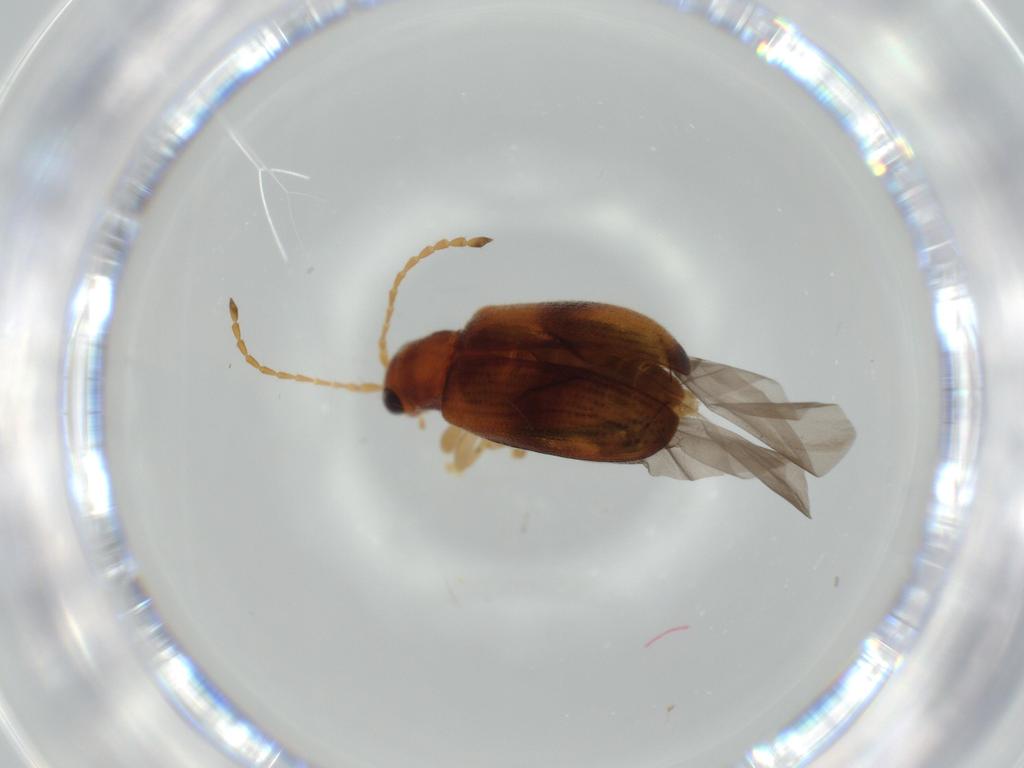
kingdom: Animalia
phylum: Arthropoda
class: Insecta
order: Coleoptera
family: Chrysomelidae
